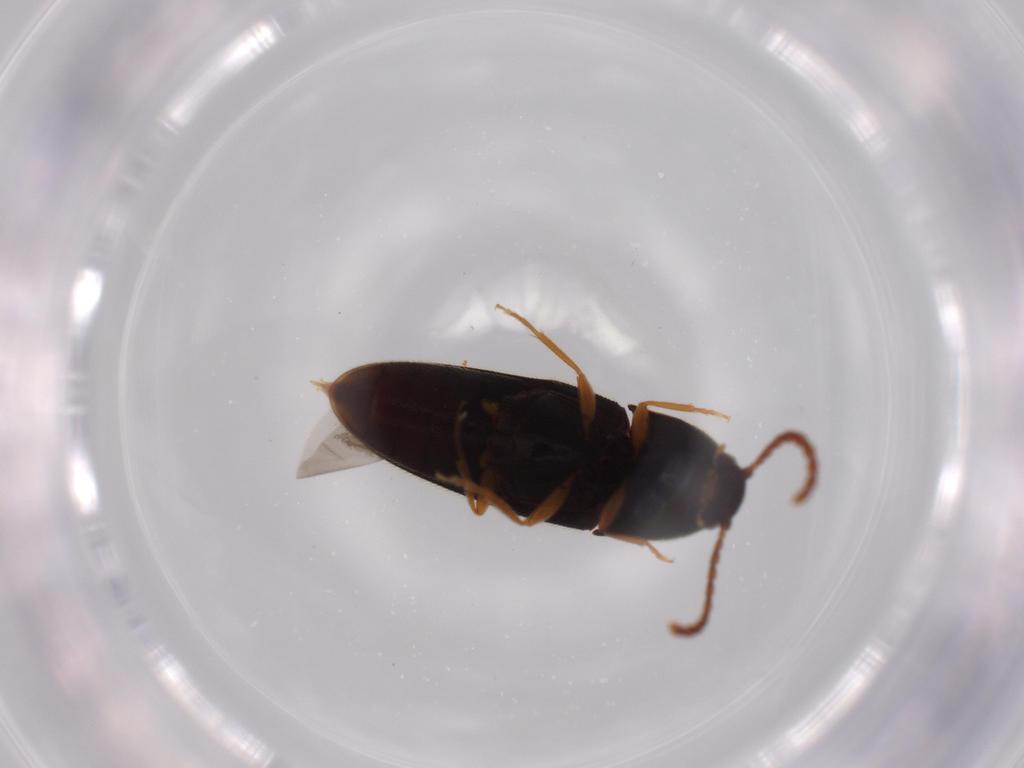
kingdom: Animalia
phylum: Arthropoda
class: Insecta
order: Coleoptera
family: Elateridae
